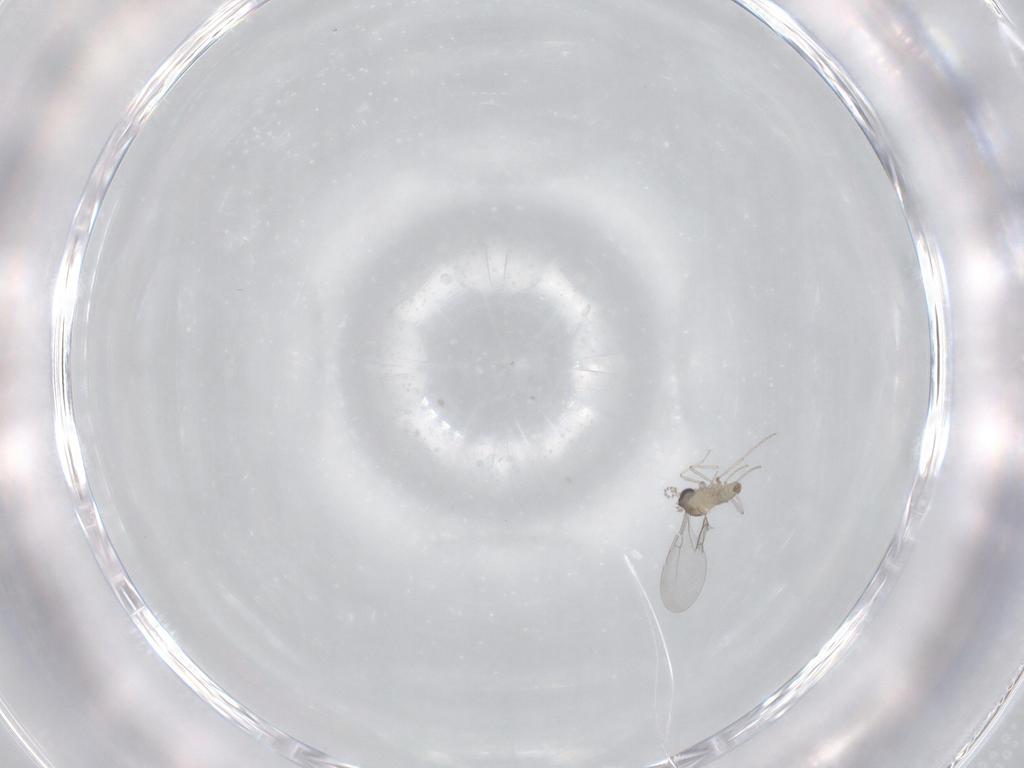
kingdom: Animalia
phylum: Arthropoda
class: Insecta
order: Diptera
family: Cecidomyiidae
